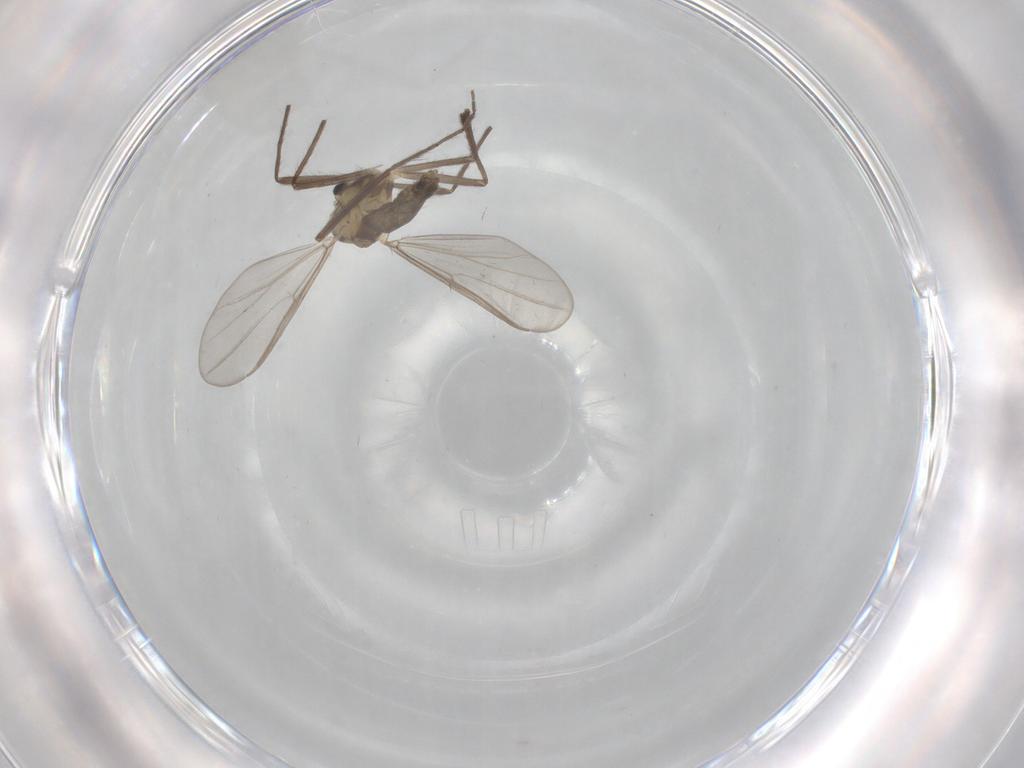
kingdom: Animalia
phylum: Arthropoda
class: Insecta
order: Diptera
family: Chironomidae
